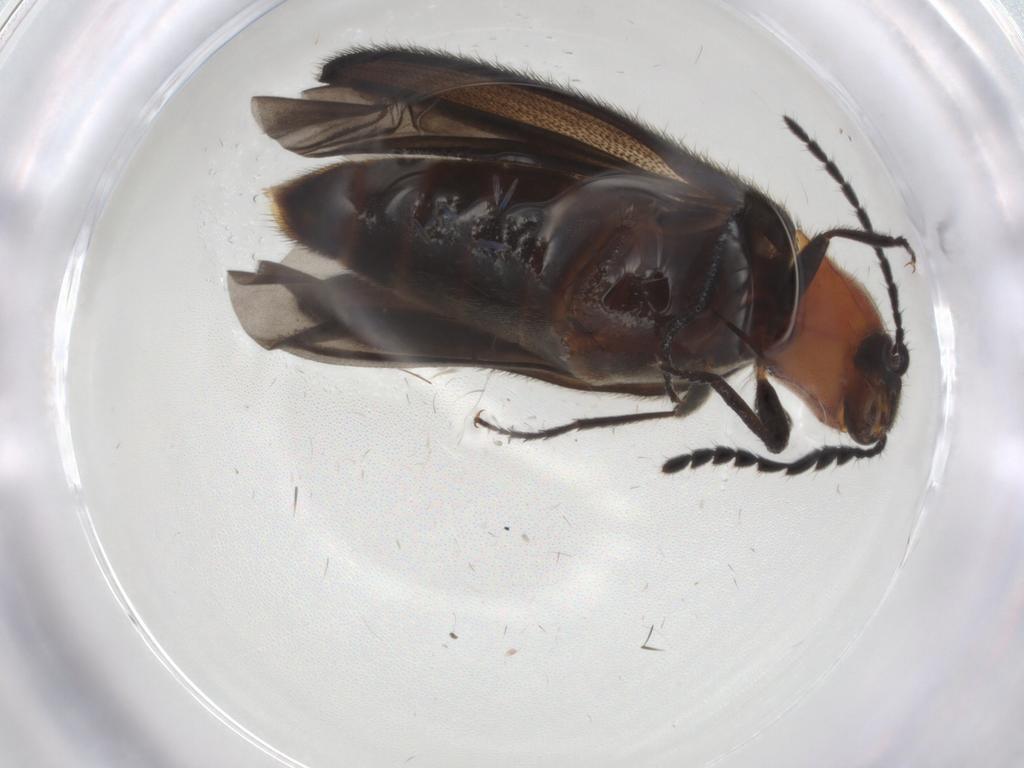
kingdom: Animalia
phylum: Arthropoda
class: Insecta
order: Coleoptera
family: Elateridae
